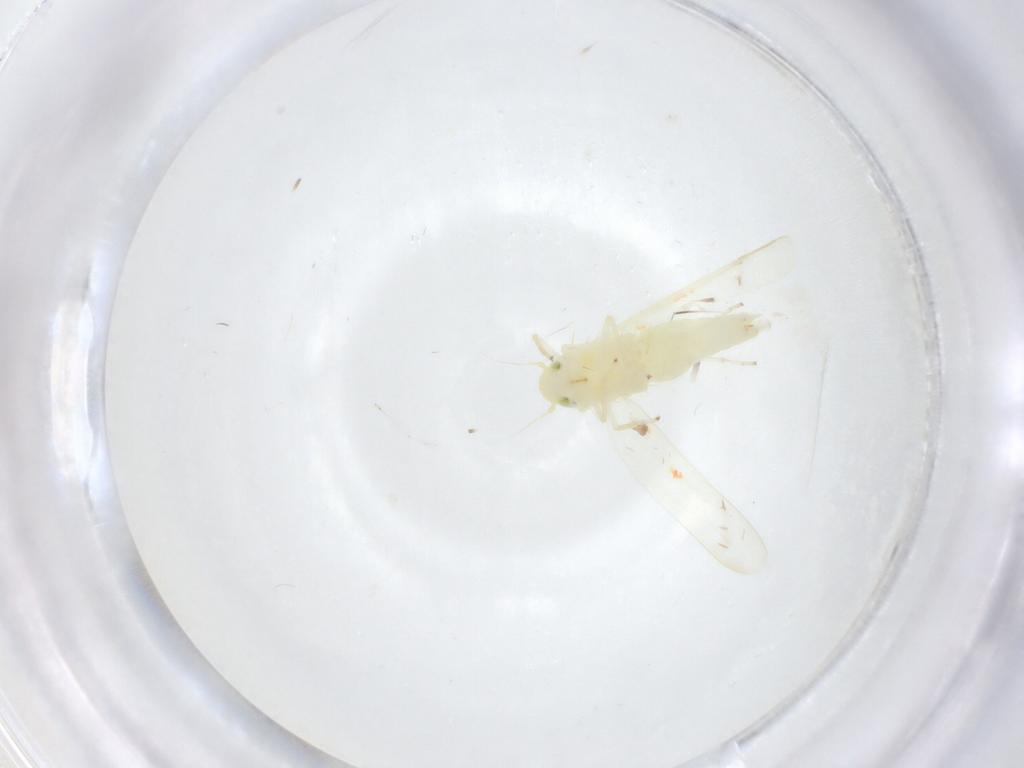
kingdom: Animalia
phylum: Arthropoda
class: Insecta
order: Hemiptera
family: Cicadellidae
